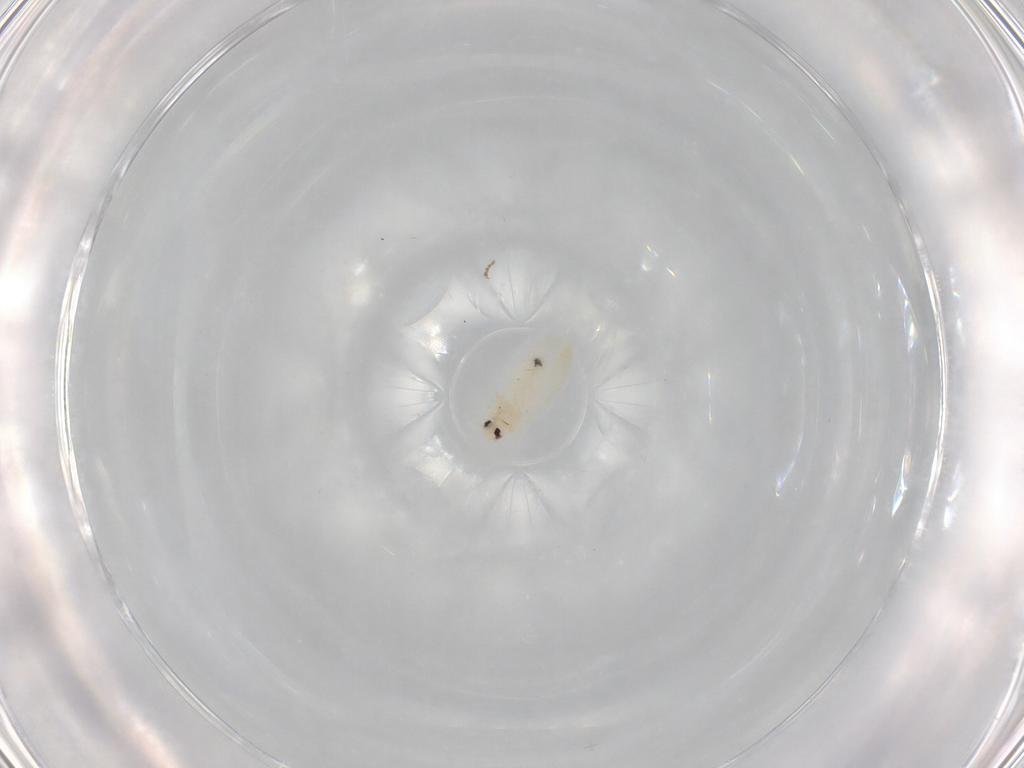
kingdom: Animalia
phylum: Arthropoda
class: Insecta
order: Hemiptera
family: Aleyrodidae
